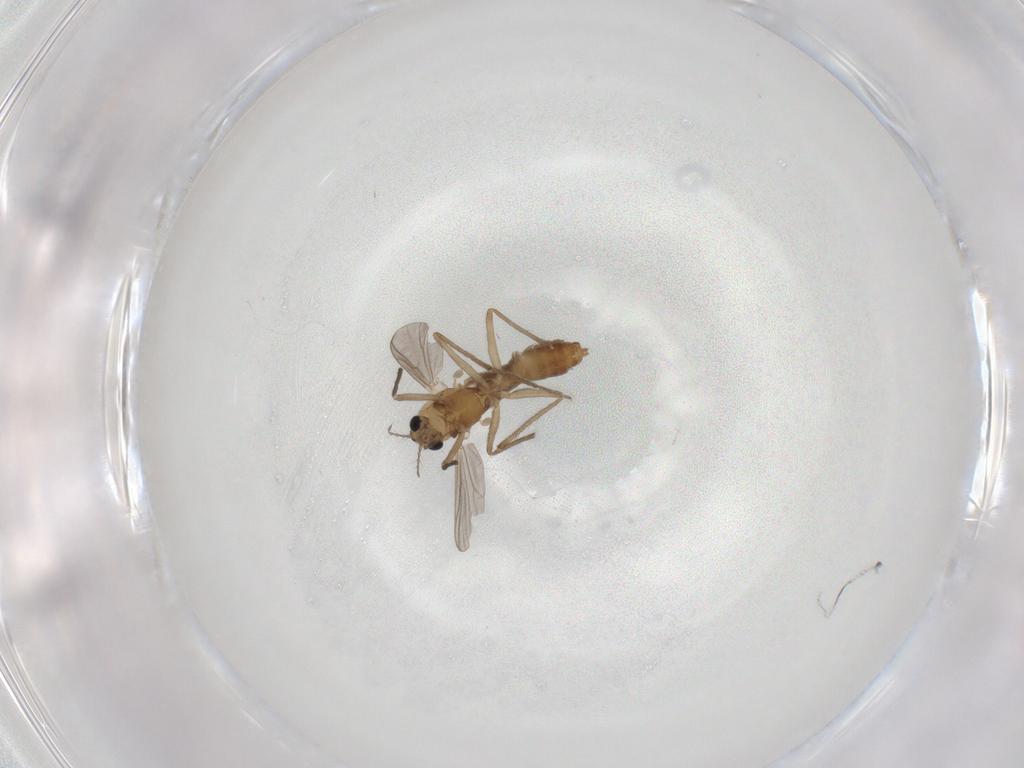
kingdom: Animalia
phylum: Arthropoda
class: Insecta
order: Diptera
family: Chironomidae
